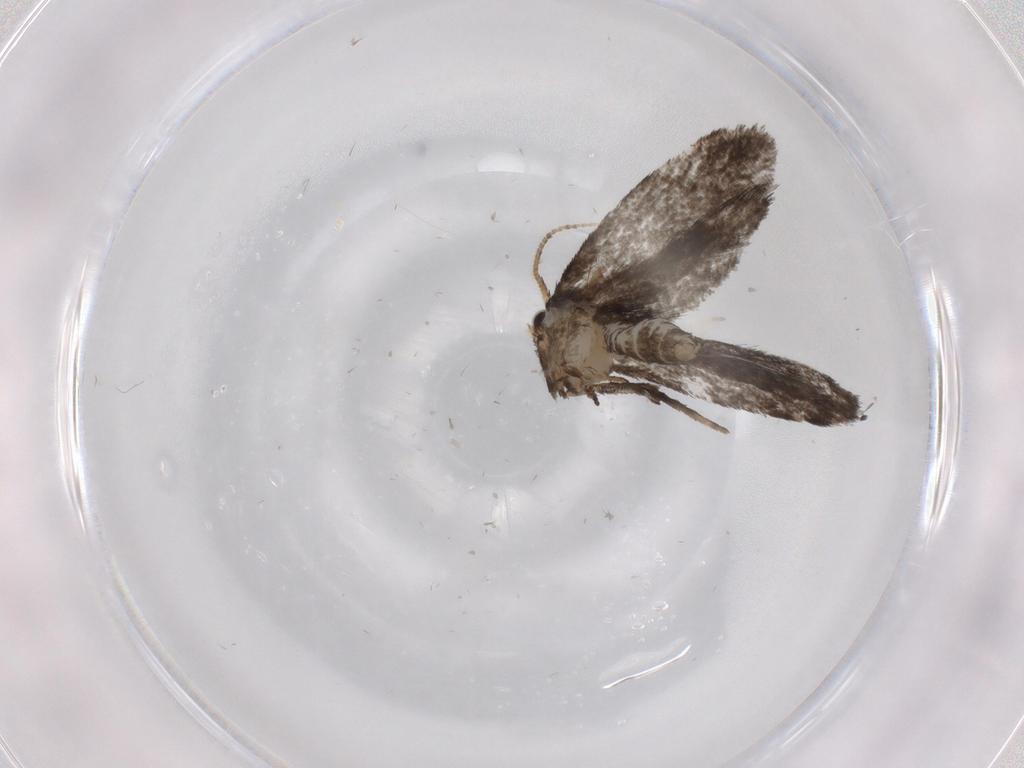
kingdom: Animalia
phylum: Arthropoda
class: Insecta
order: Lepidoptera
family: Psychidae
